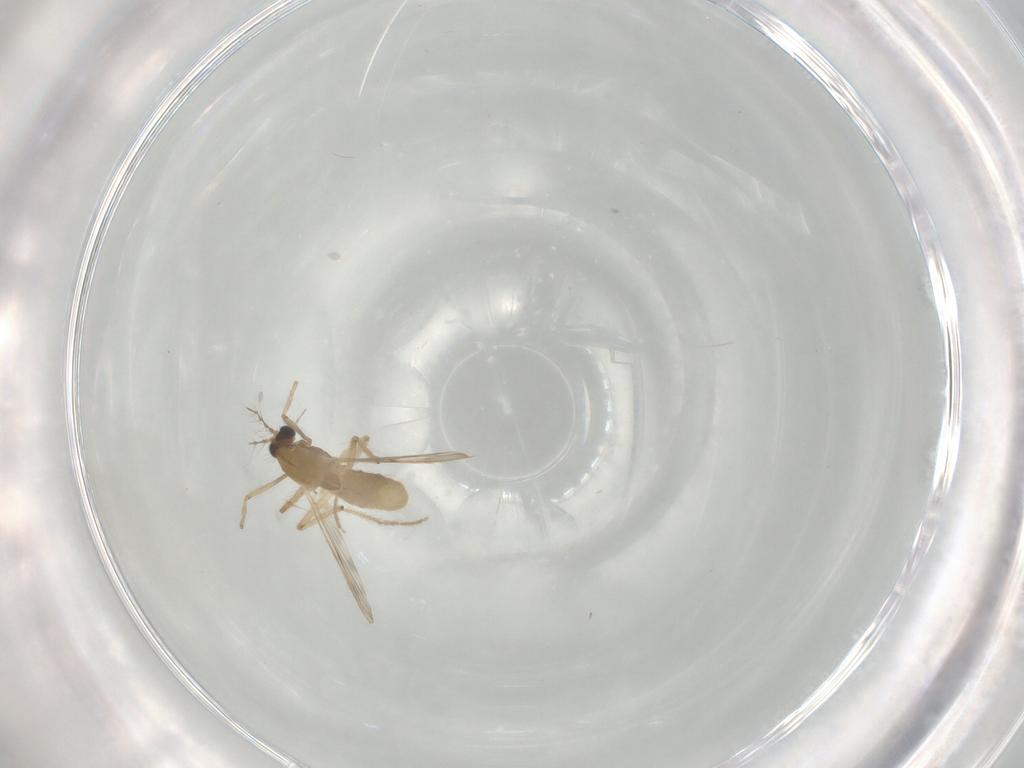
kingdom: Animalia
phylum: Arthropoda
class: Insecta
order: Diptera
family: Chironomidae
